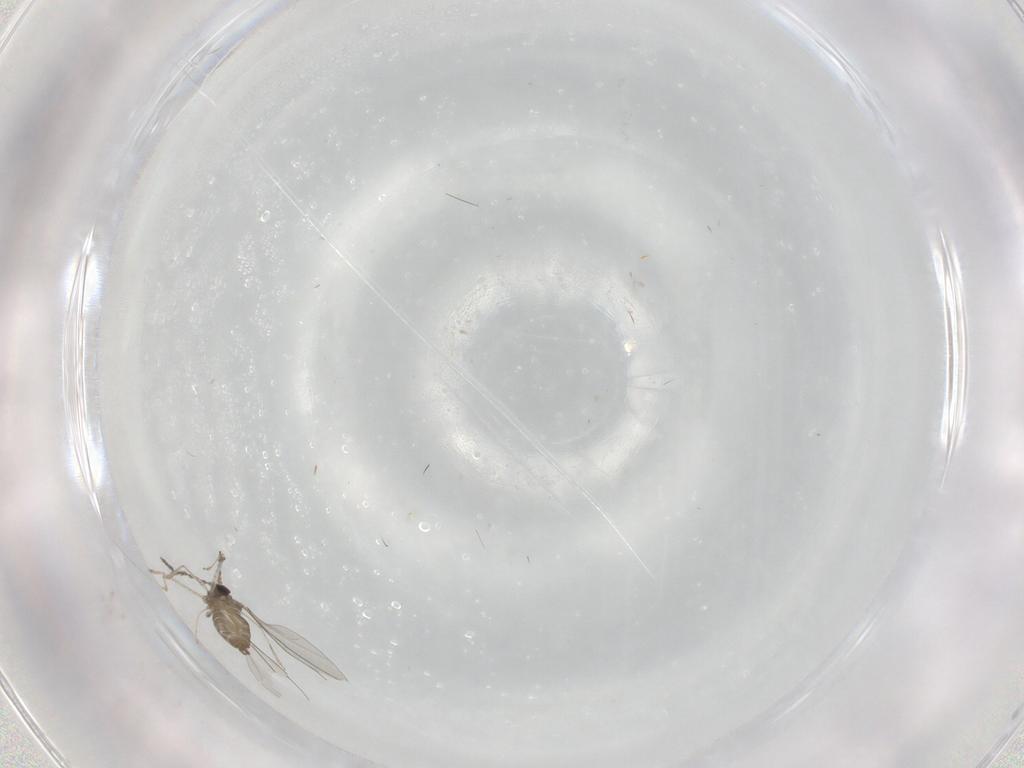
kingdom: Animalia
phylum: Arthropoda
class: Insecta
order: Diptera
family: Cecidomyiidae
